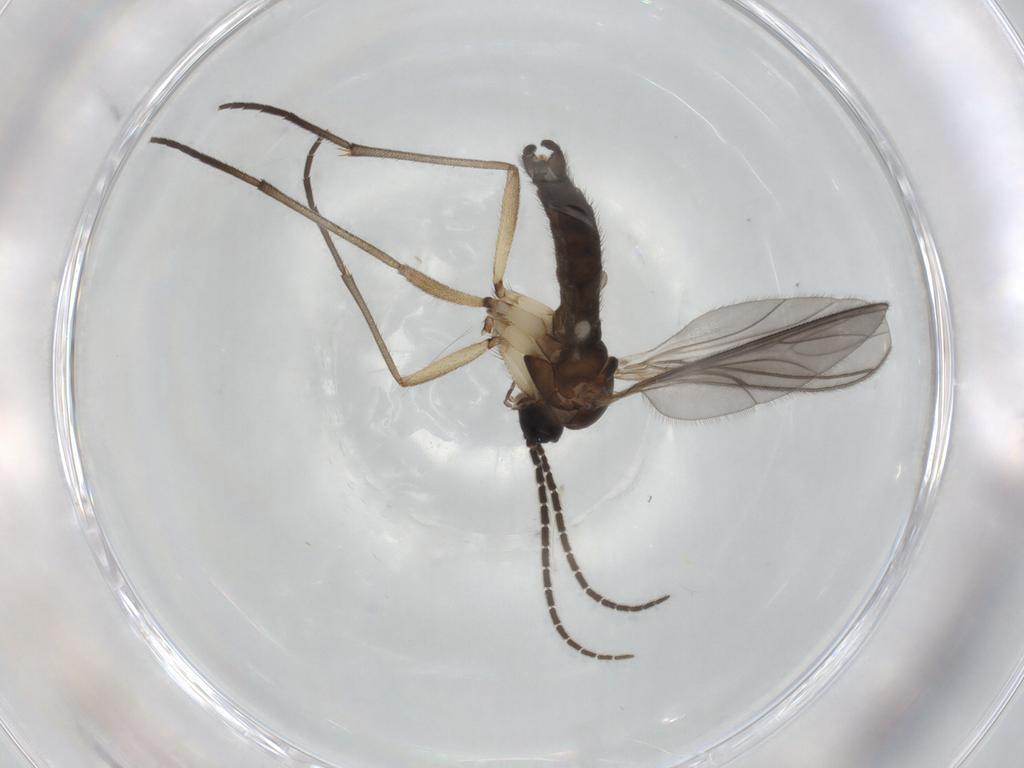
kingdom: Animalia
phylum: Arthropoda
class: Insecta
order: Diptera
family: Sciaridae
